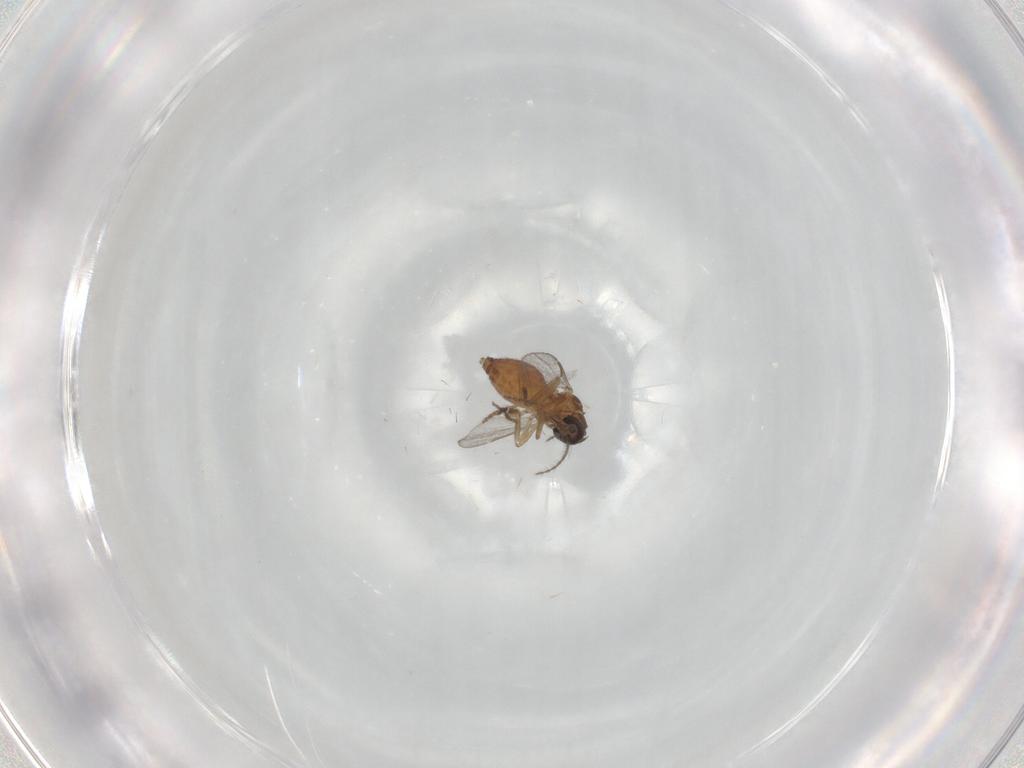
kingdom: Animalia
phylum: Arthropoda
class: Insecta
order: Diptera
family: Drosophilidae
